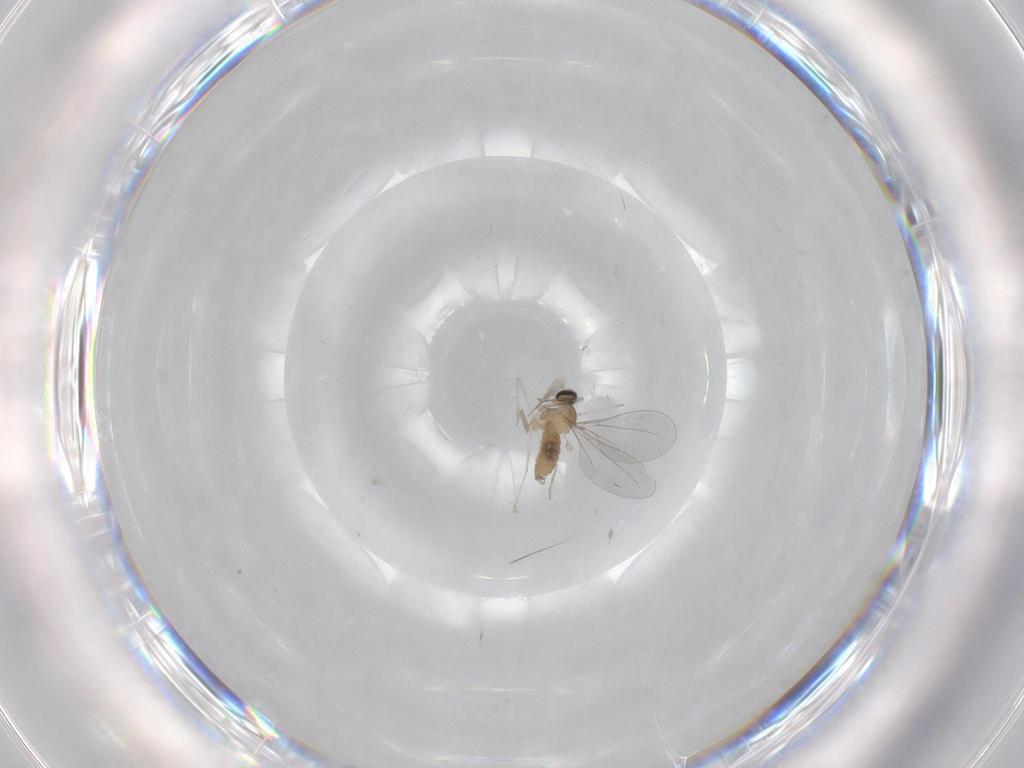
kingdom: Animalia
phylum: Arthropoda
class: Insecta
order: Diptera
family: Cecidomyiidae
